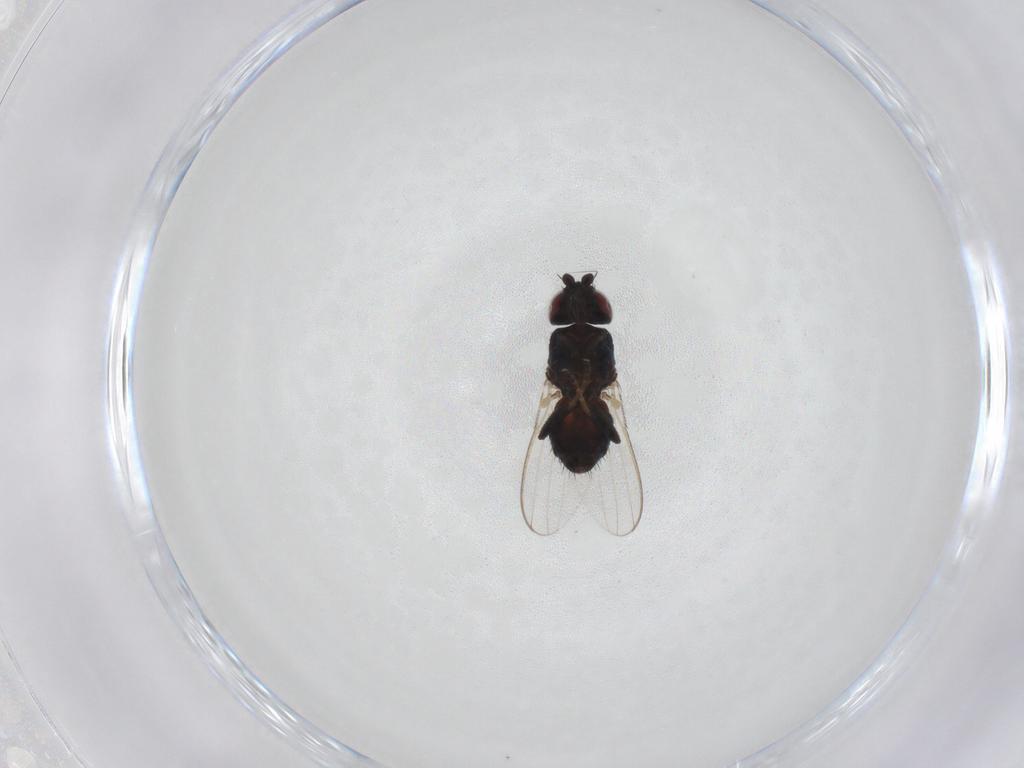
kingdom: Animalia
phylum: Arthropoda
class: Insecta
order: Diptera
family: Milichiidae
